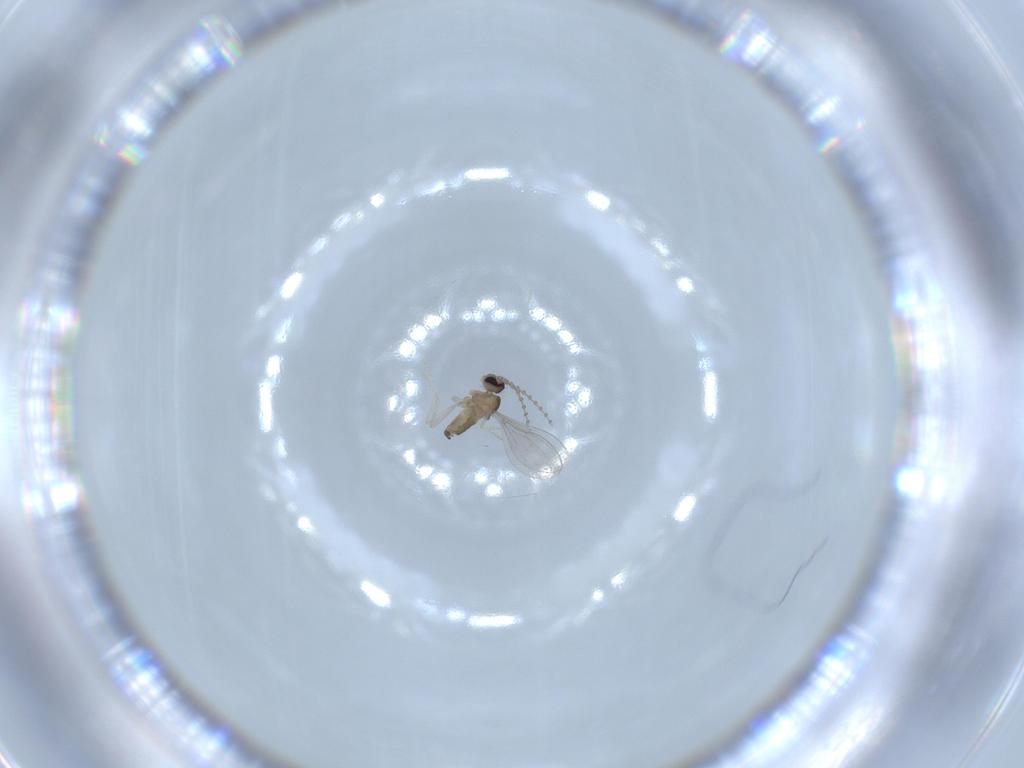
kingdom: Animalia
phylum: Arthropoda
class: Insecta
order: Diptera
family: Cecidomyiidae
